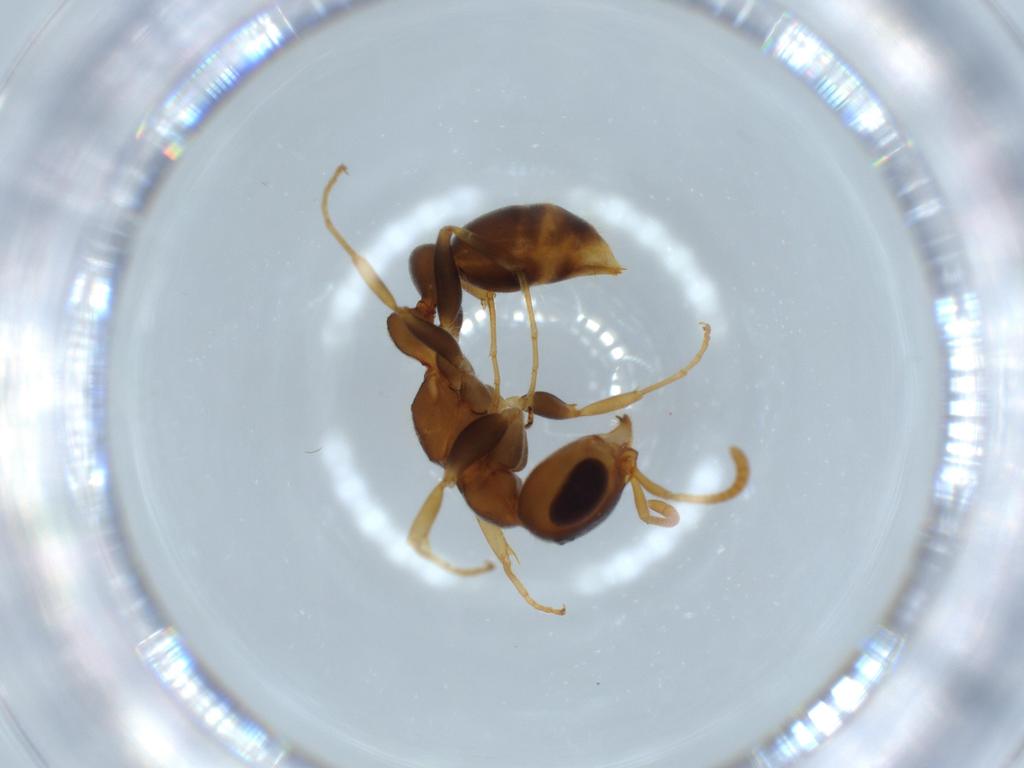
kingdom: Animalia
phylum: Arthropoda
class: Insecta
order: Hymenoptera
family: Formicidae
